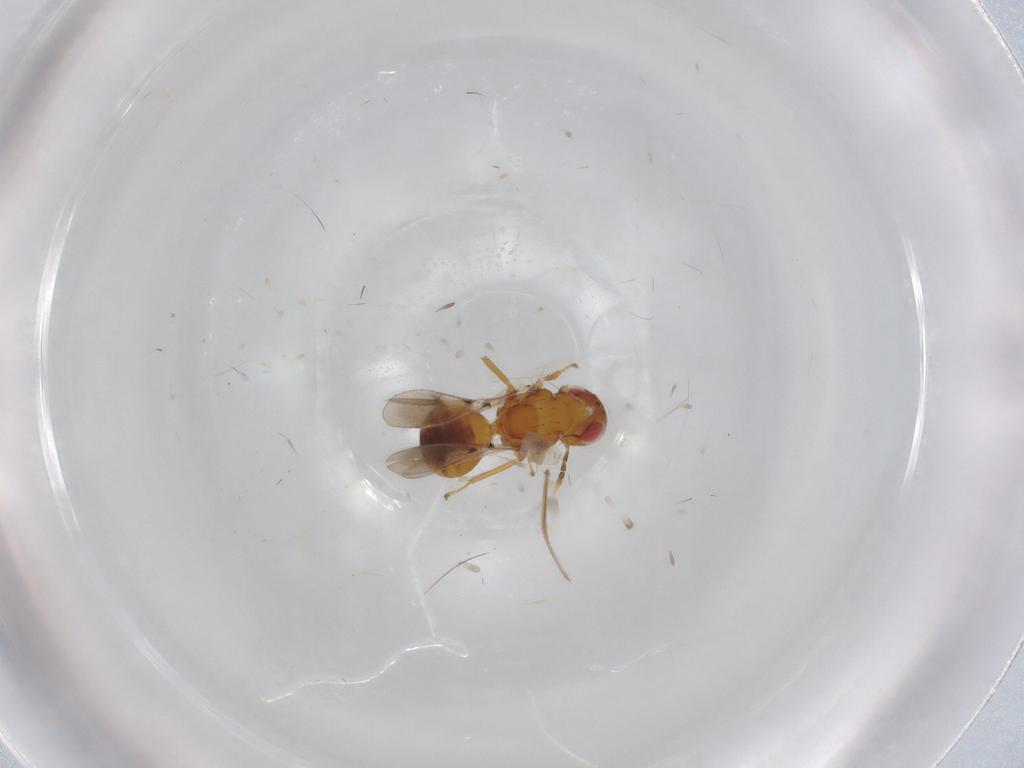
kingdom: Animalia
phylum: Arthropoda
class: Insecta
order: Hymenoptera
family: Eulophidae
